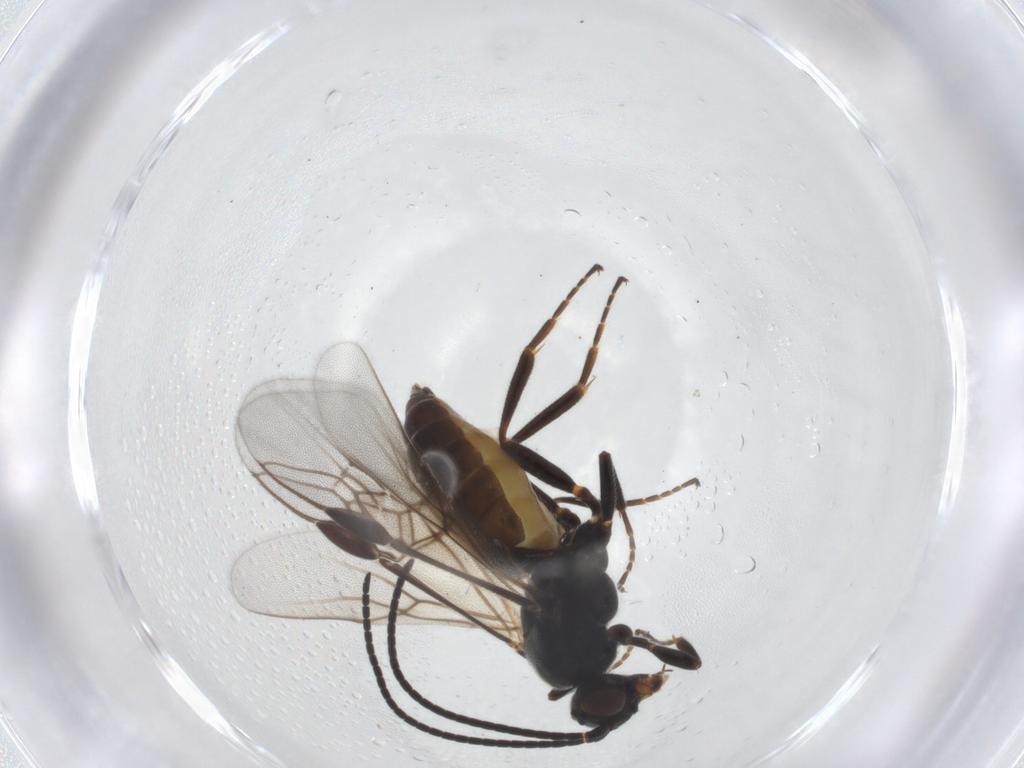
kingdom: Animalia
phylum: Arthropoda
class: Insecta
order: Hymenoptera
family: Braconidae
